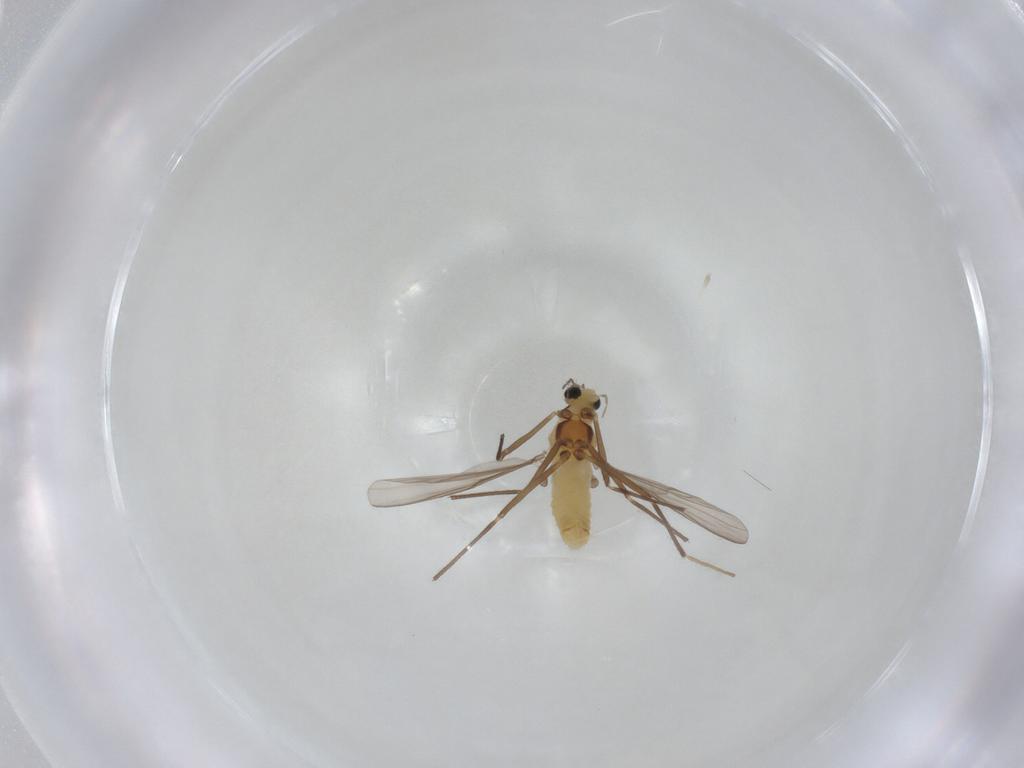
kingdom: Animalia
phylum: Arthropoda
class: Insecta
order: Diptera
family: Chironomidae
